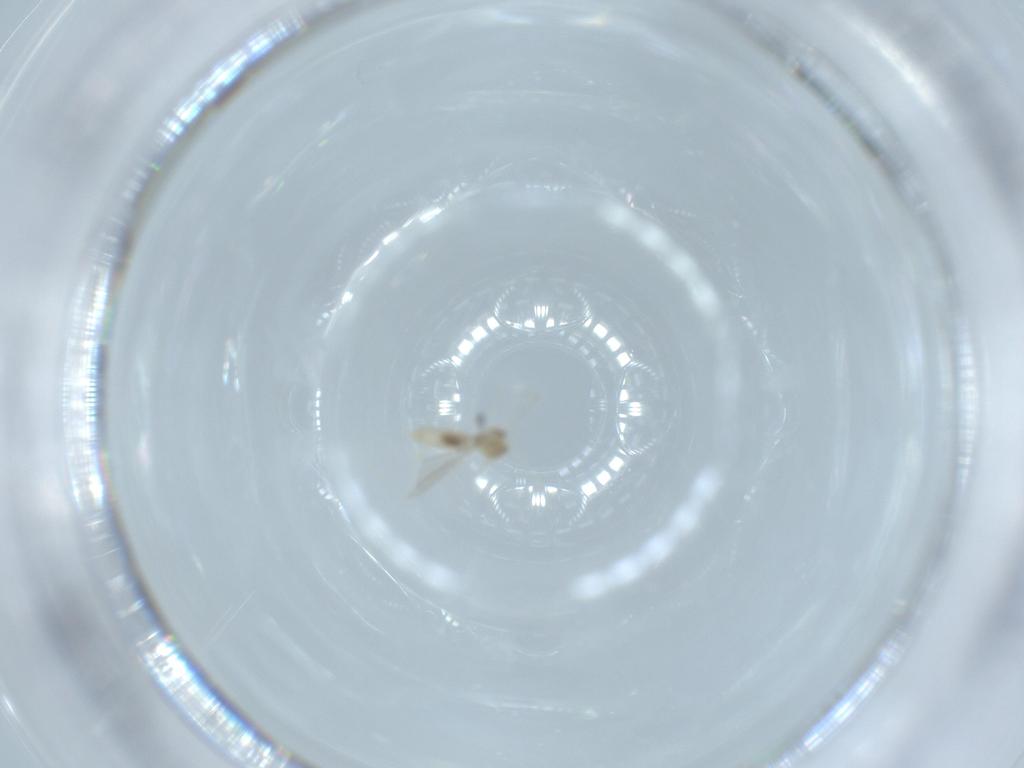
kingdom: Animalia
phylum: Arthropoda
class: Insecta
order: Diptera
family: Cecidomyiidae
